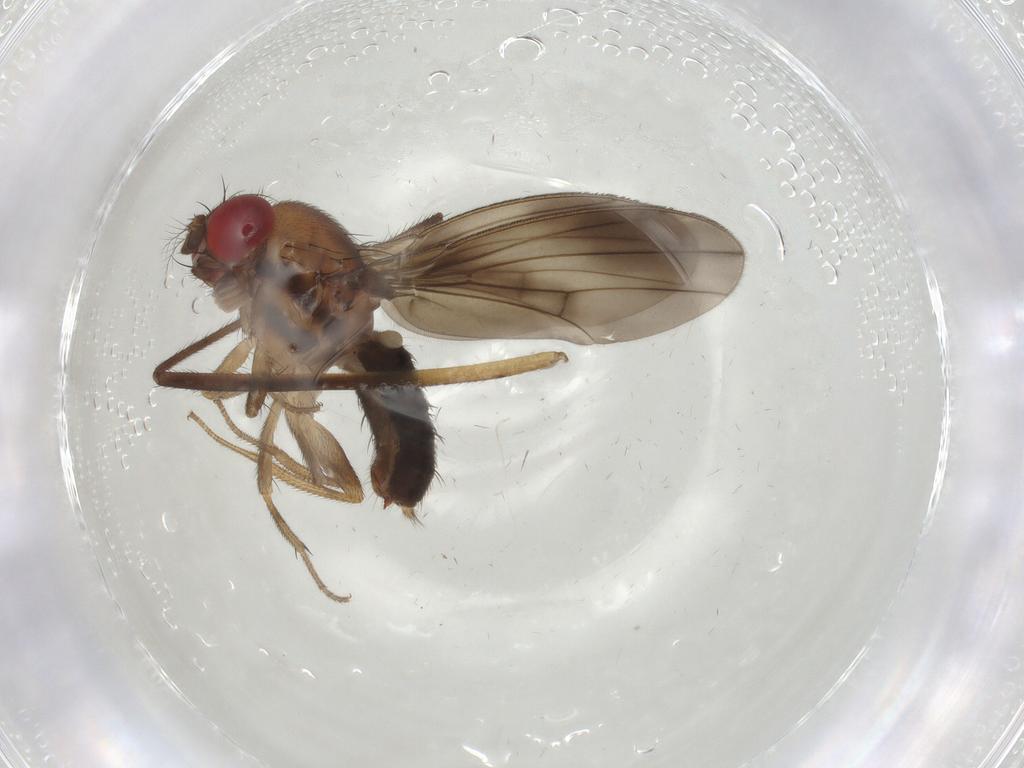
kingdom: Animalia
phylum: Arthropoda
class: Insecta
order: Diptera
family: Drosophilidae
